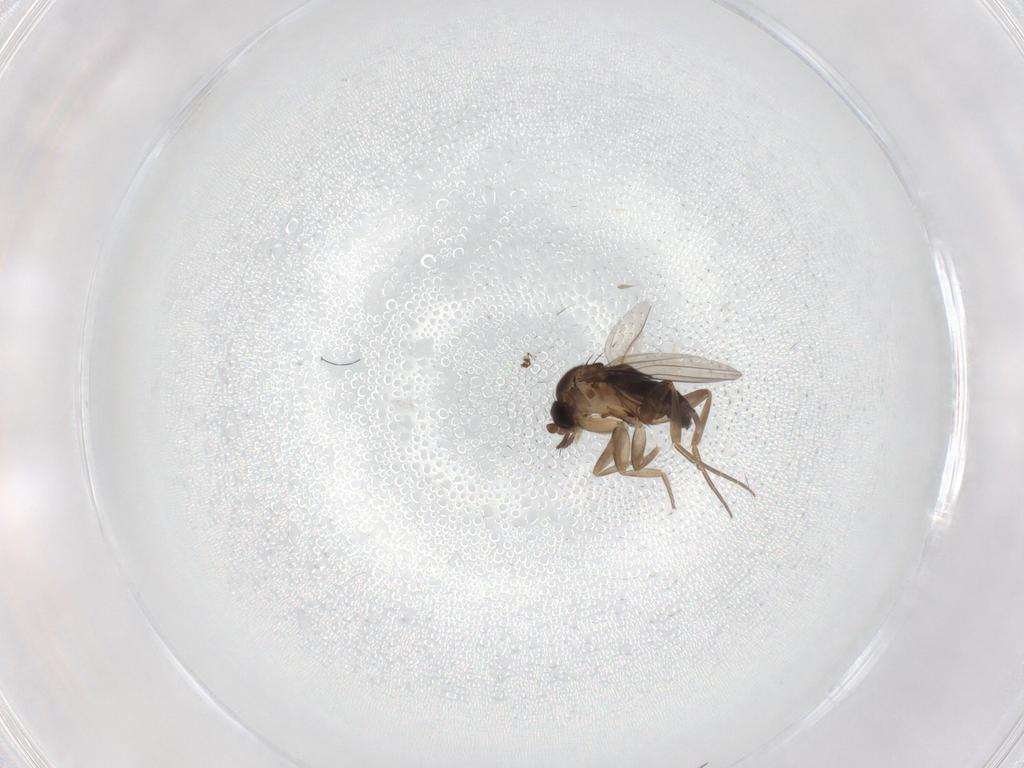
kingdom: Animalia
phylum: Arthropoda
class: Insecta
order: Diptera
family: Phoridae
